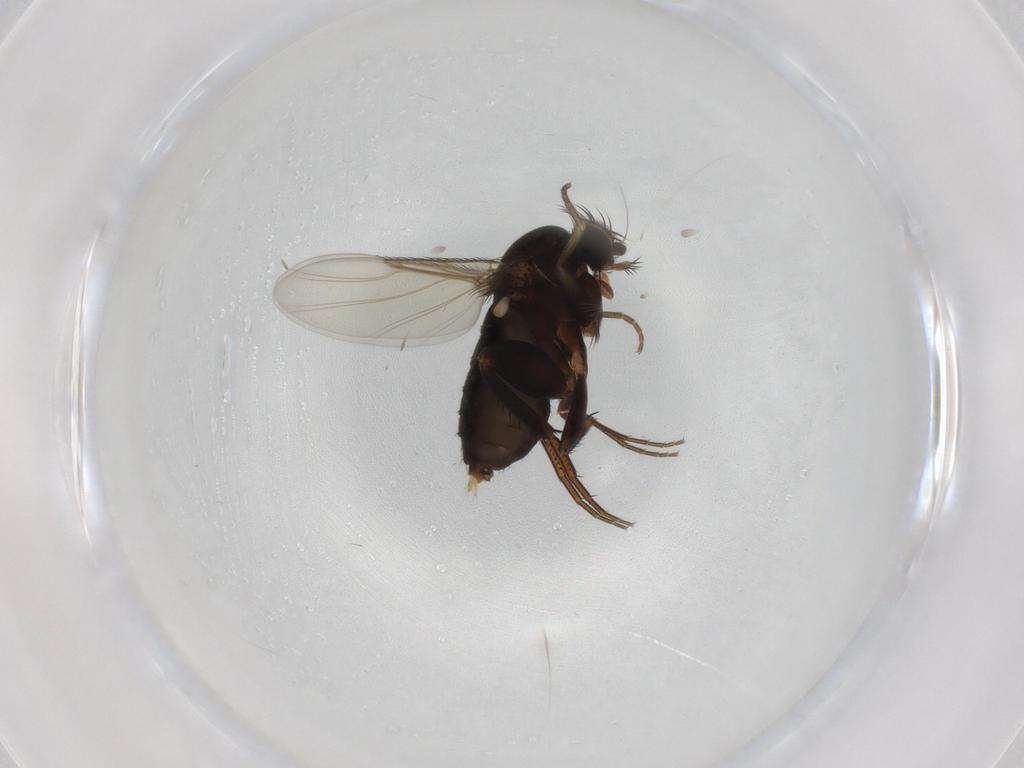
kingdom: Animalia
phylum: Arthropoda
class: Insecta
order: Diptera
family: Phoridae
